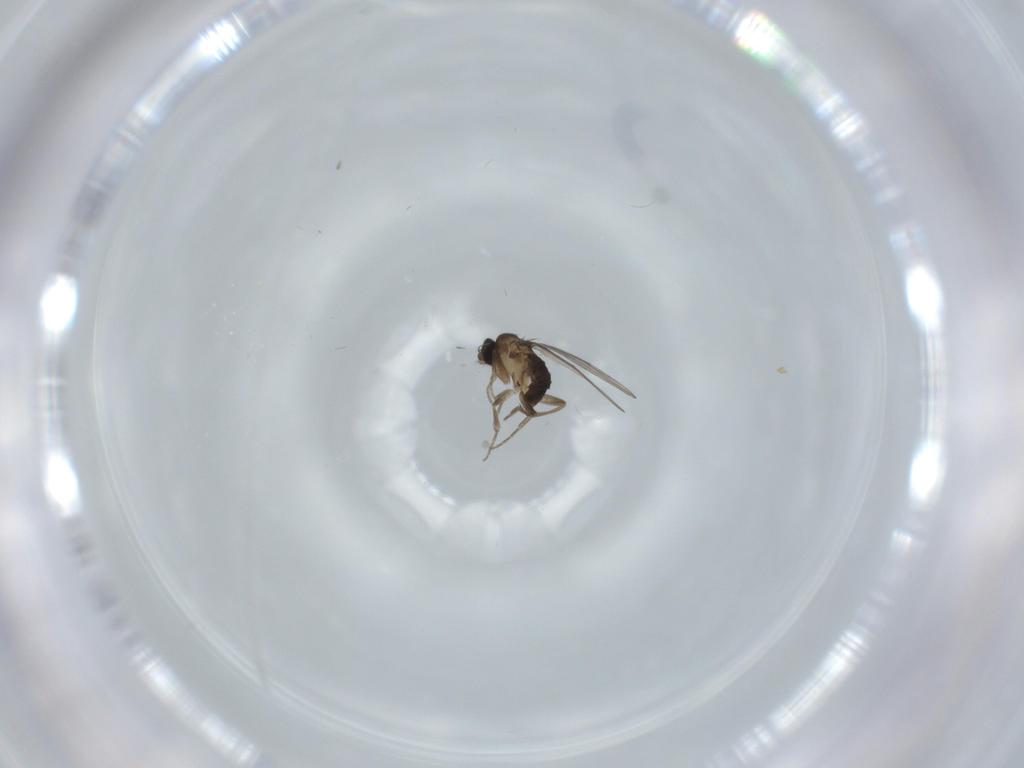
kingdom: Animalia
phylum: Arthropoda
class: Insecta
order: Diptera
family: Phoridae
